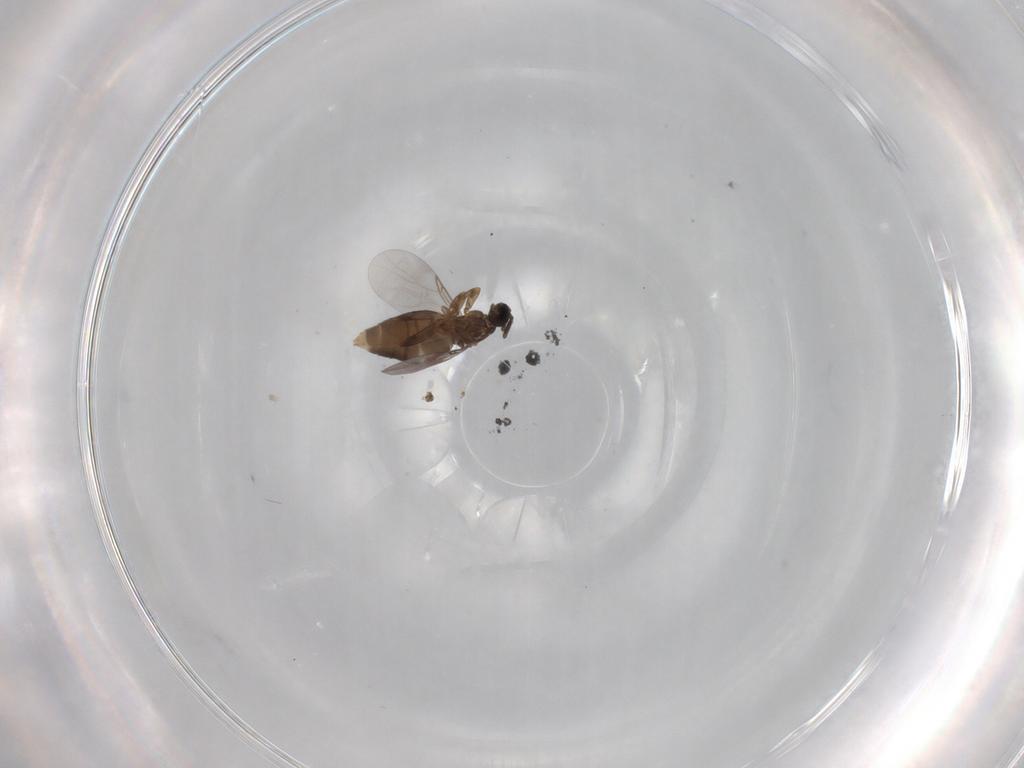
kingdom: Animalia
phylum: Arthropoda
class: Insecta
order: Diptera
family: Scatopsidae
